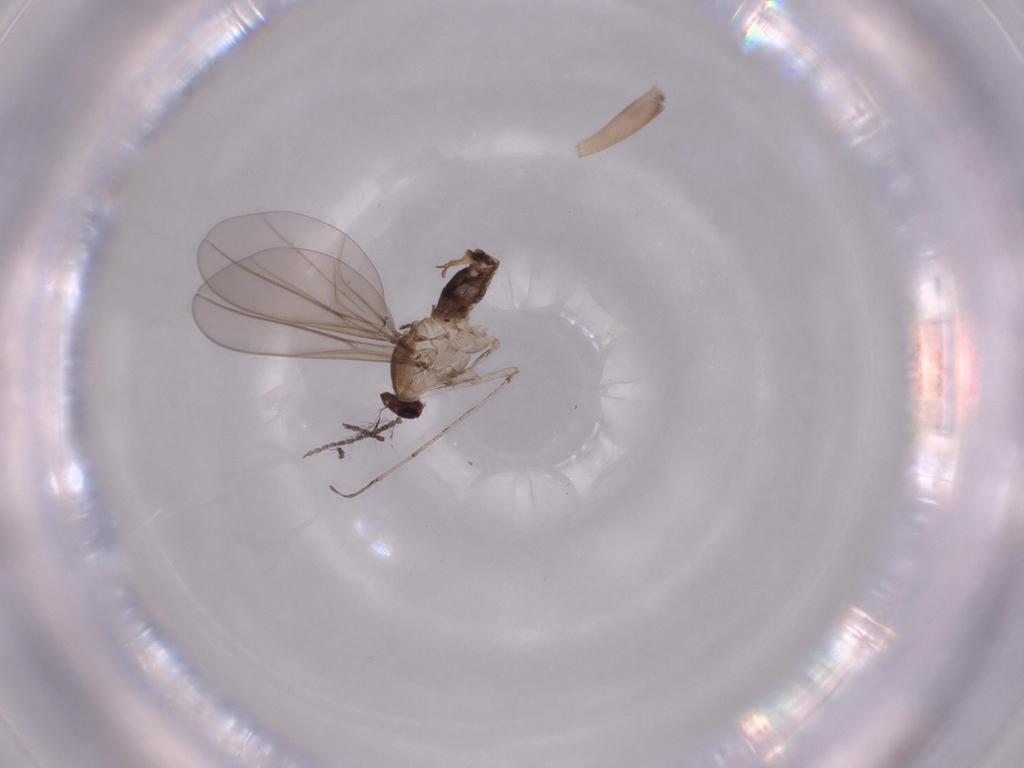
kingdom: Animalia
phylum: Arthropoda
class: Insecta
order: Diptera
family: Cecidomyiidae
